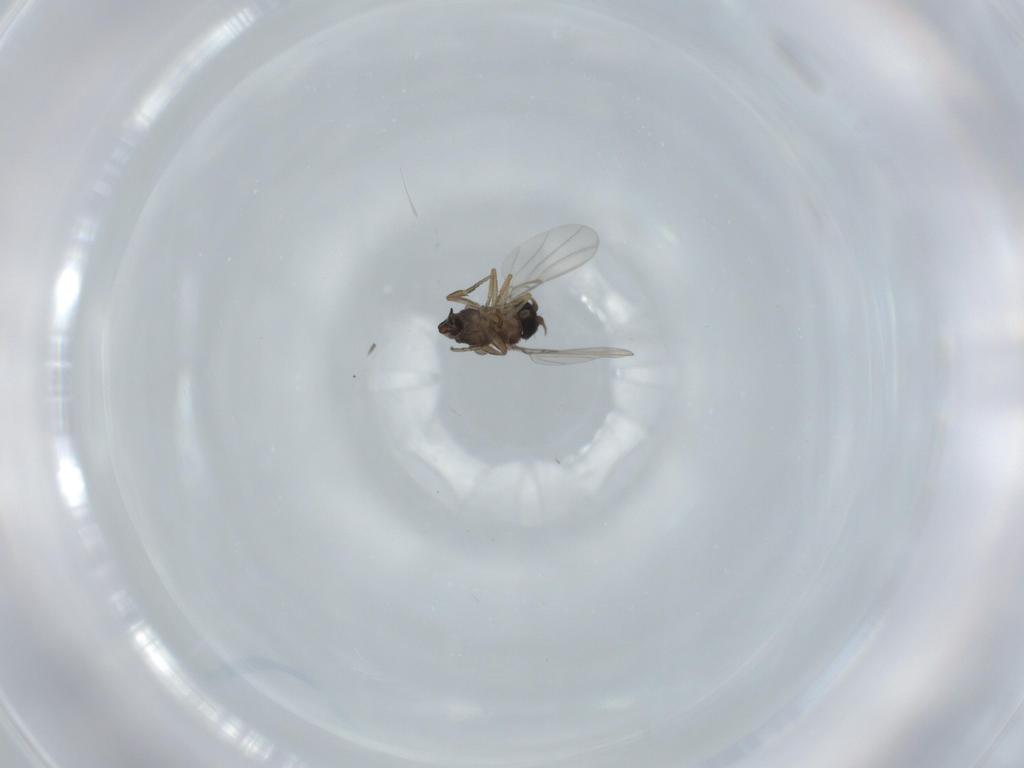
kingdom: Animalia
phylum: Arthropoda
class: Insecta
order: Diptera
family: Phoridae
